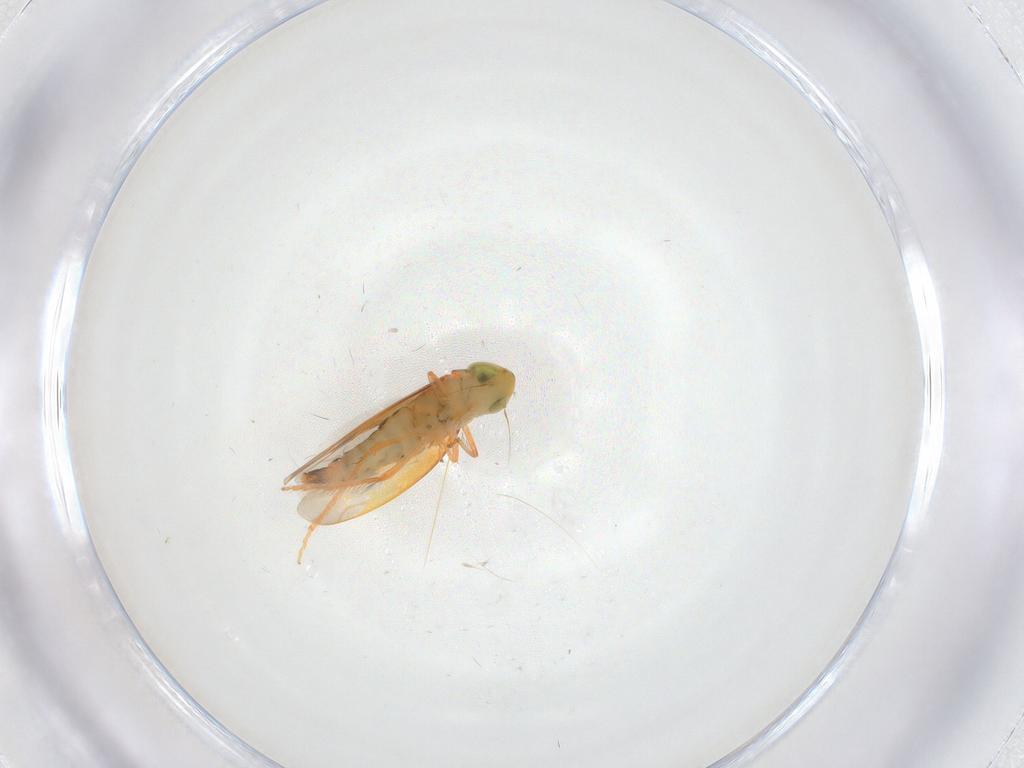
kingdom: Animalia
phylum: Arthropoda
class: Insecta
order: Hemiptera
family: Cicadellidae
